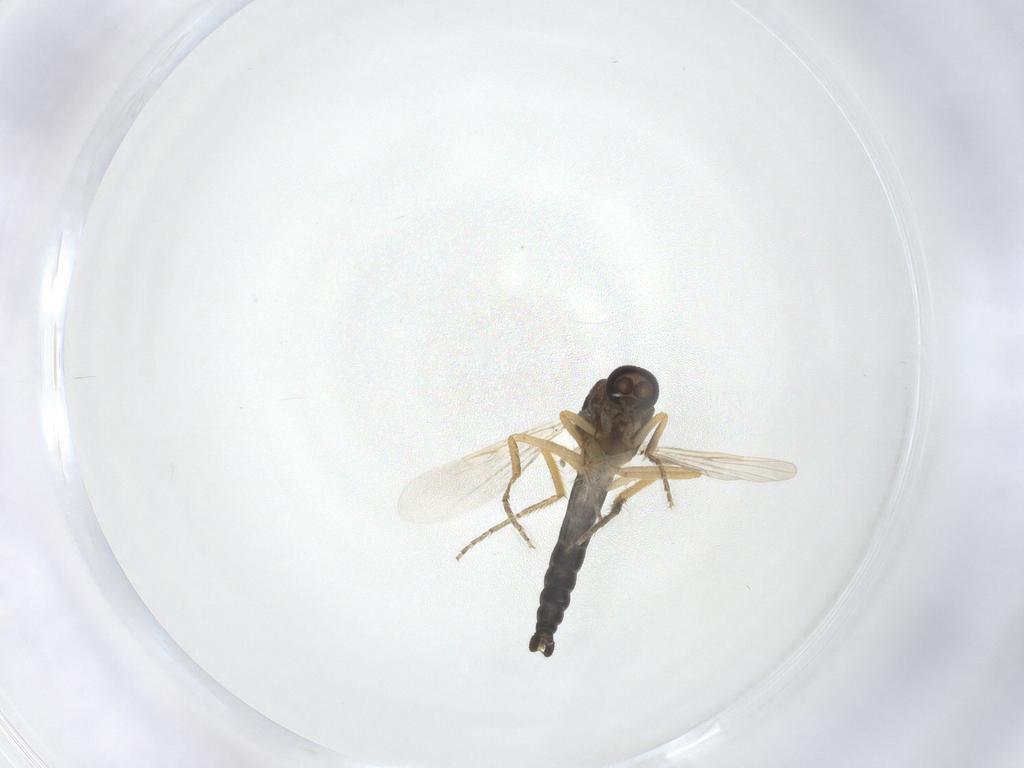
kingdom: Animalia
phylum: Arthropoda
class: Insecta
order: Diptera
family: Ceratopogonidae
